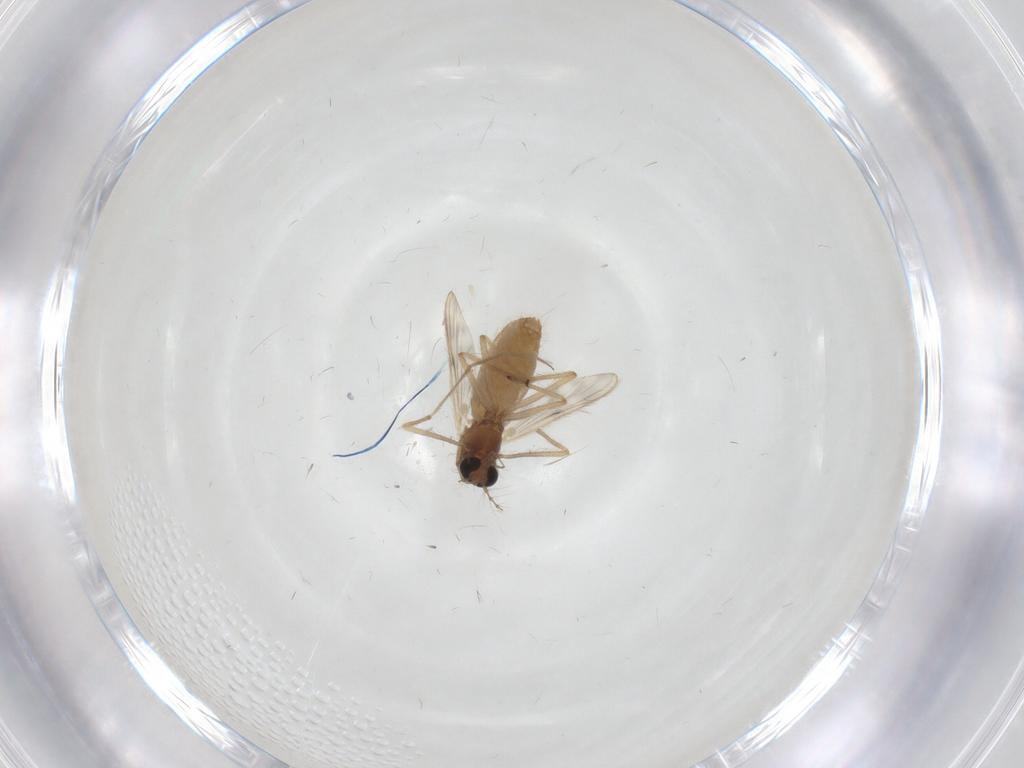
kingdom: Animalia
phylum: Arthropoda
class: Insecta
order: Diptera
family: Chironomidae
